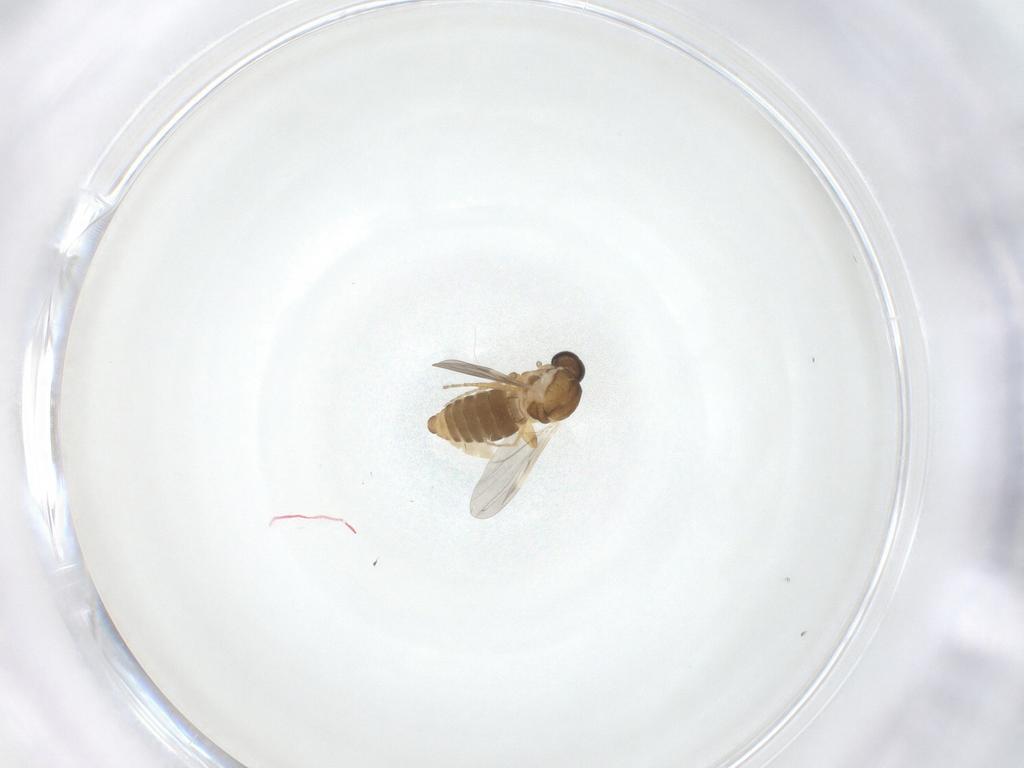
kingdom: Animalia
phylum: Arthropoda
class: Insecta
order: Diptera
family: Ceratopogonidae
